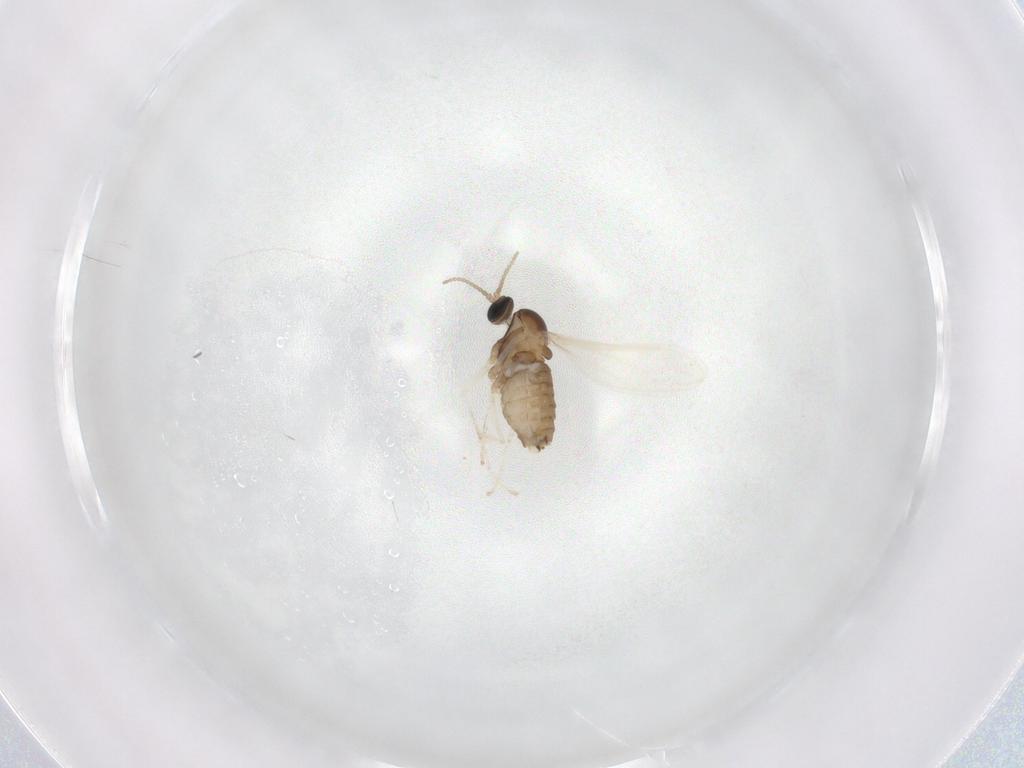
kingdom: Animalia
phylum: Arthropoda
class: Insecta
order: Diptera
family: Cecidomyiidae
